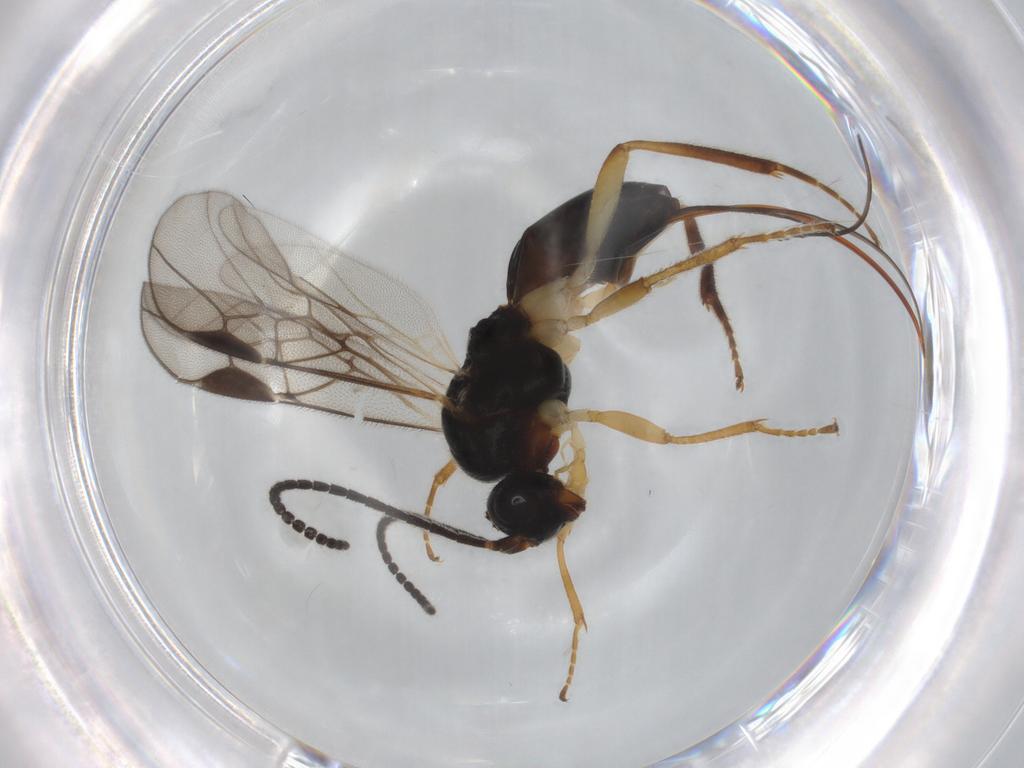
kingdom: Animalia
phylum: Arthropoda
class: Insecta
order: Hymenoptera
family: Braconidae
